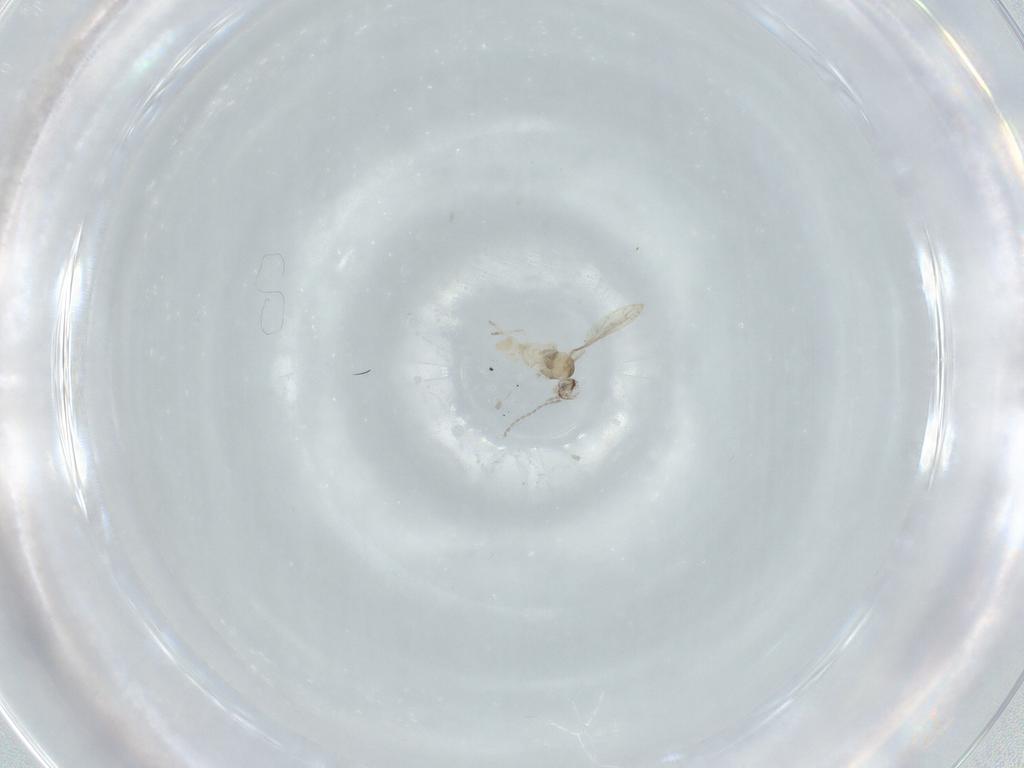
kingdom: Animalia
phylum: Arthropoda
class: Insecta
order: Diptera
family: Cecidomyiidae
